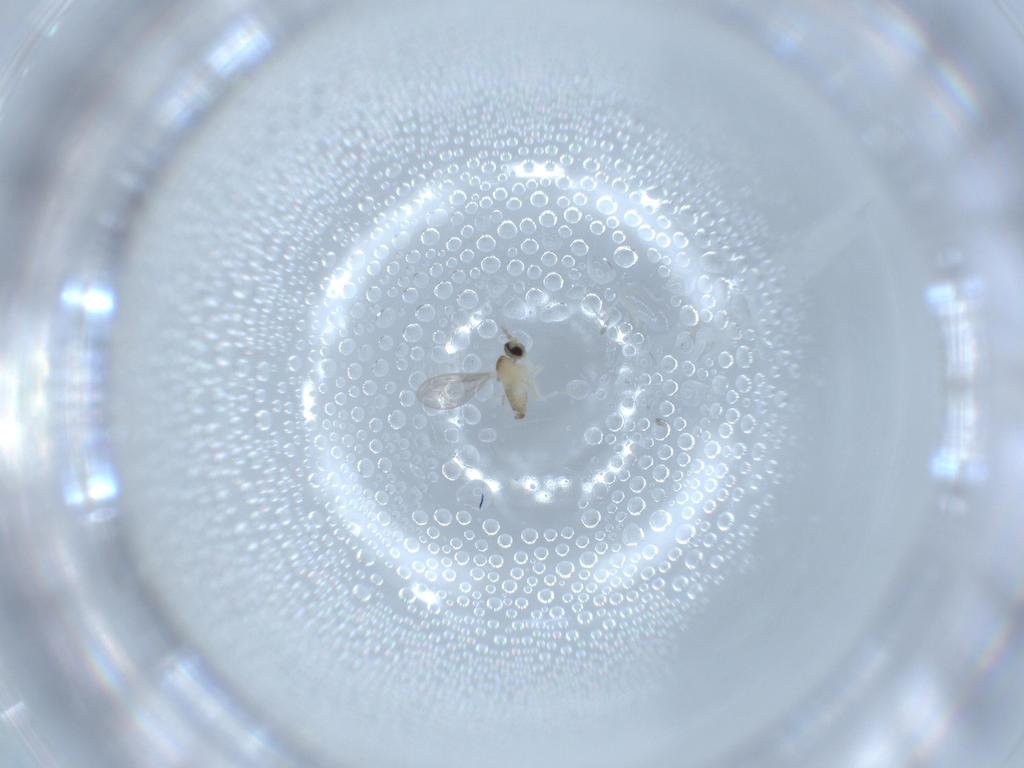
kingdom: Animalia
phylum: Arthropoda
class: Insecta
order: Diptera
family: Cecidomyiidae
